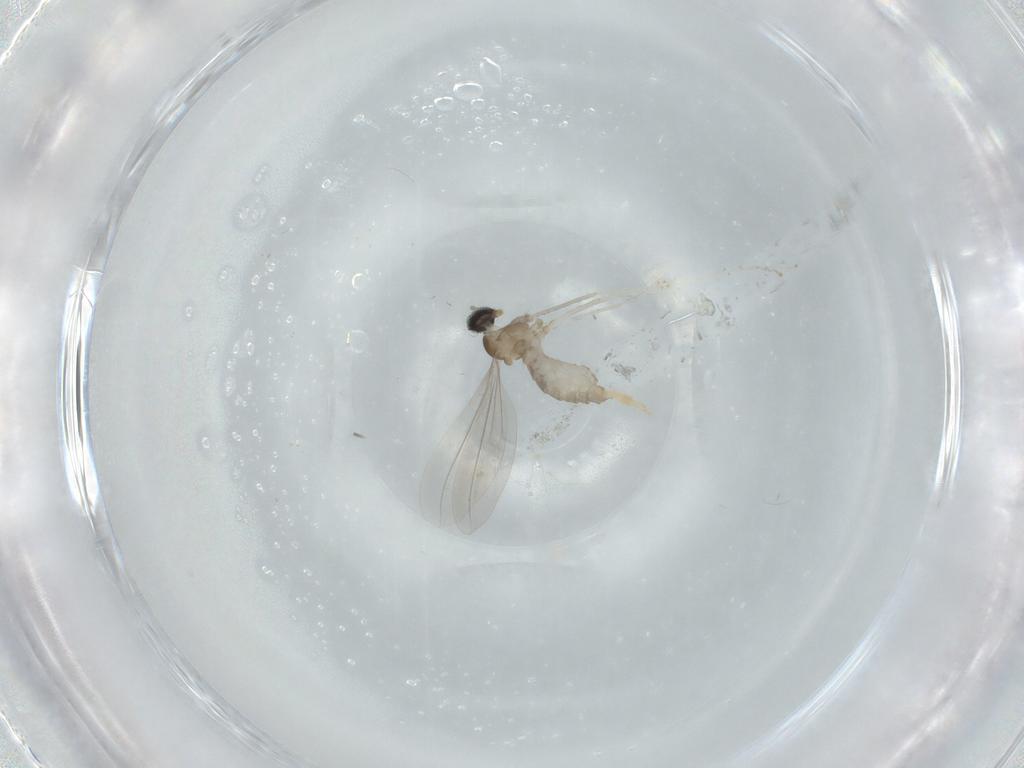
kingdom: Animalia
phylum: Arthropoda
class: Insecta
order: Diptera
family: Cecidomyiidae
